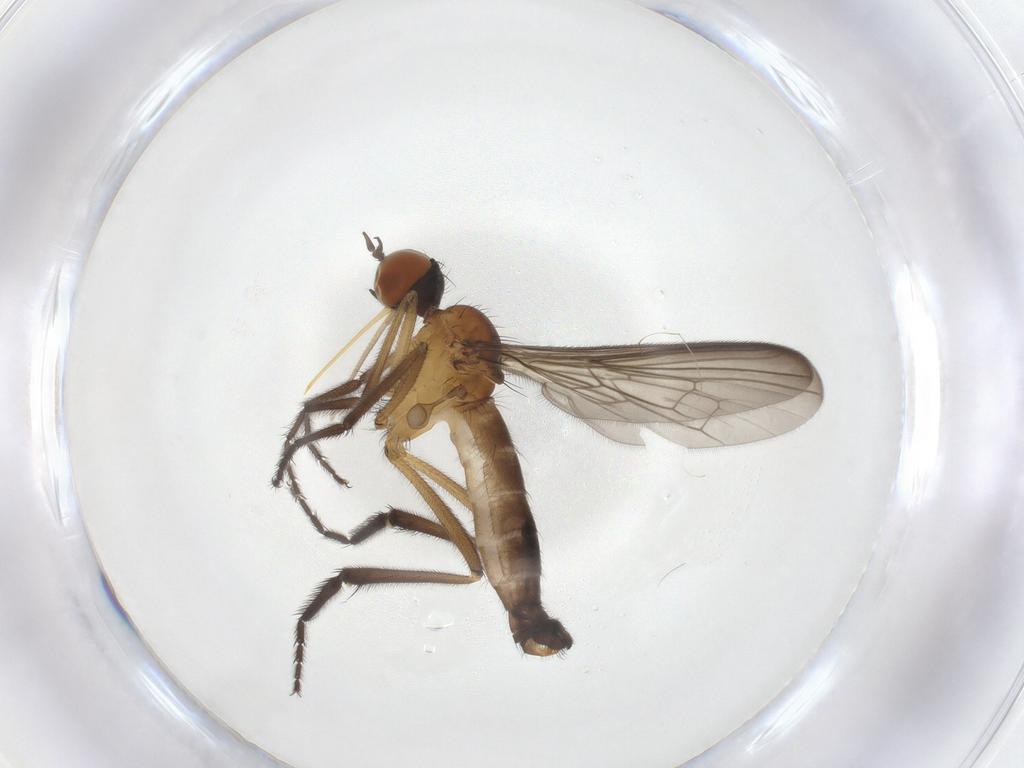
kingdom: Animalia
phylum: Arthropoda
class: Insecta
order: Diptera
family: Empididae
